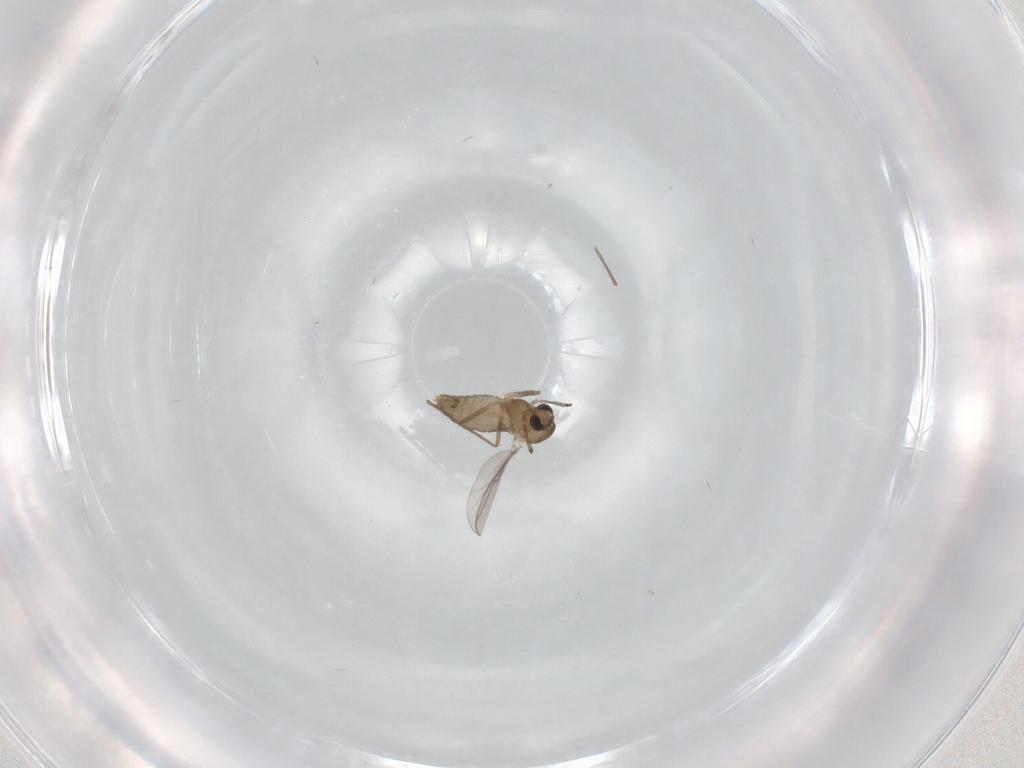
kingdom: Animalia
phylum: Arthropoda
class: Insecta
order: Diptera
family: Chironomidae
